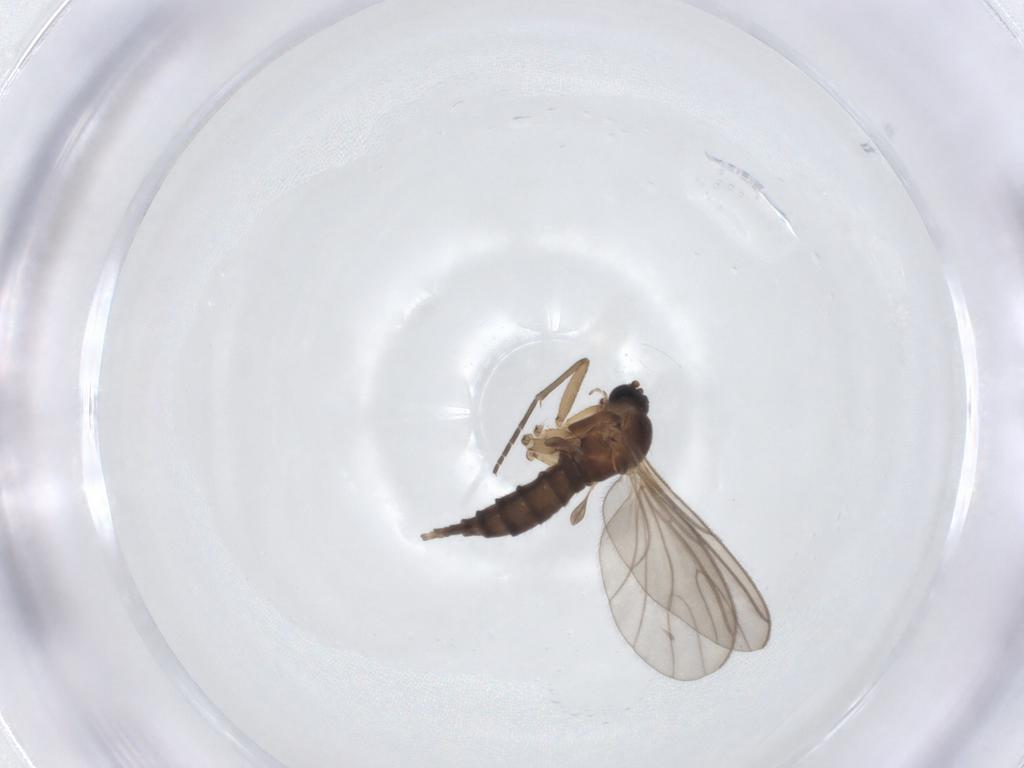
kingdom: Animalia
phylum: Arthropoda
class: Insecta
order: Diptera
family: Sciaridae
